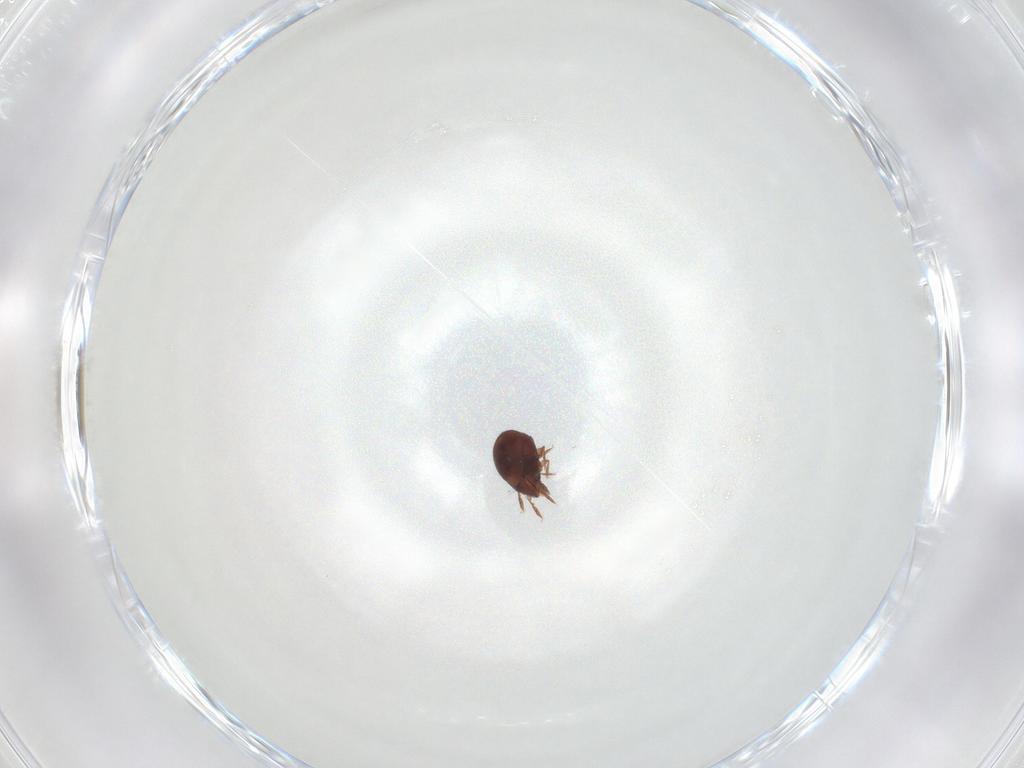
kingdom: Animalia
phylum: Arthropoda
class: Arachnida
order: Sarcoptiformes
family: Humerobatidae
